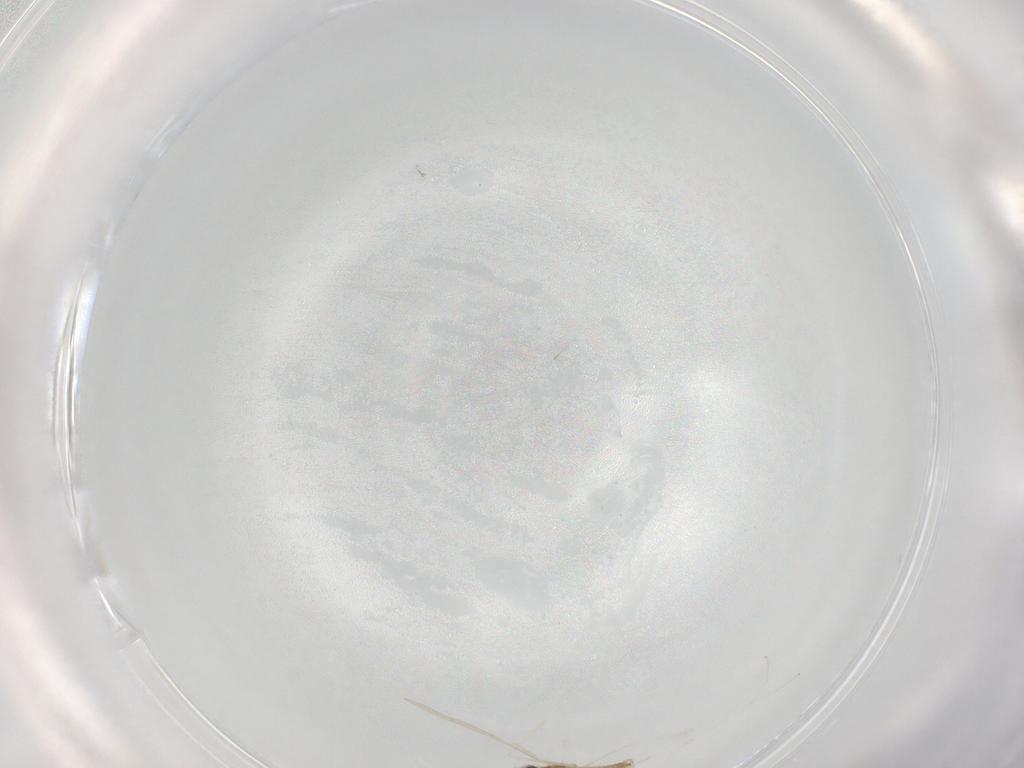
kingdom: Animalia
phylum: Arthropoda
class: Insecta
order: Diptera
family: Cecidomyiidae
